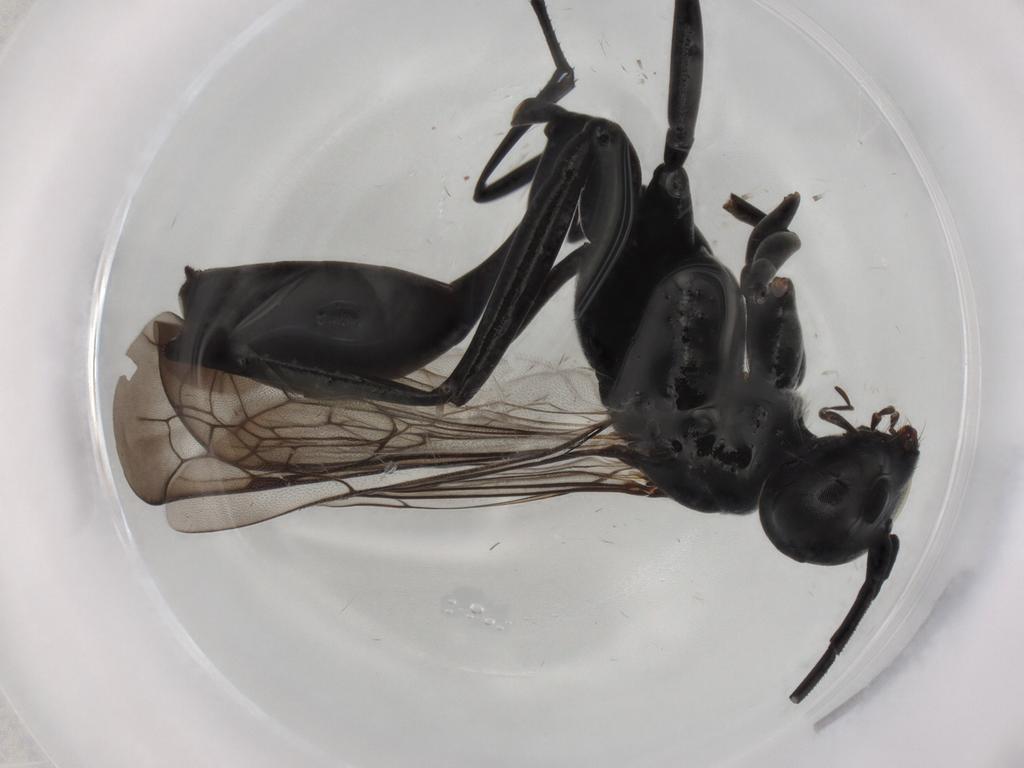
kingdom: Animalia
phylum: Arthropoda
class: Insecta
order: Hymenoptera
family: Pompilidae
